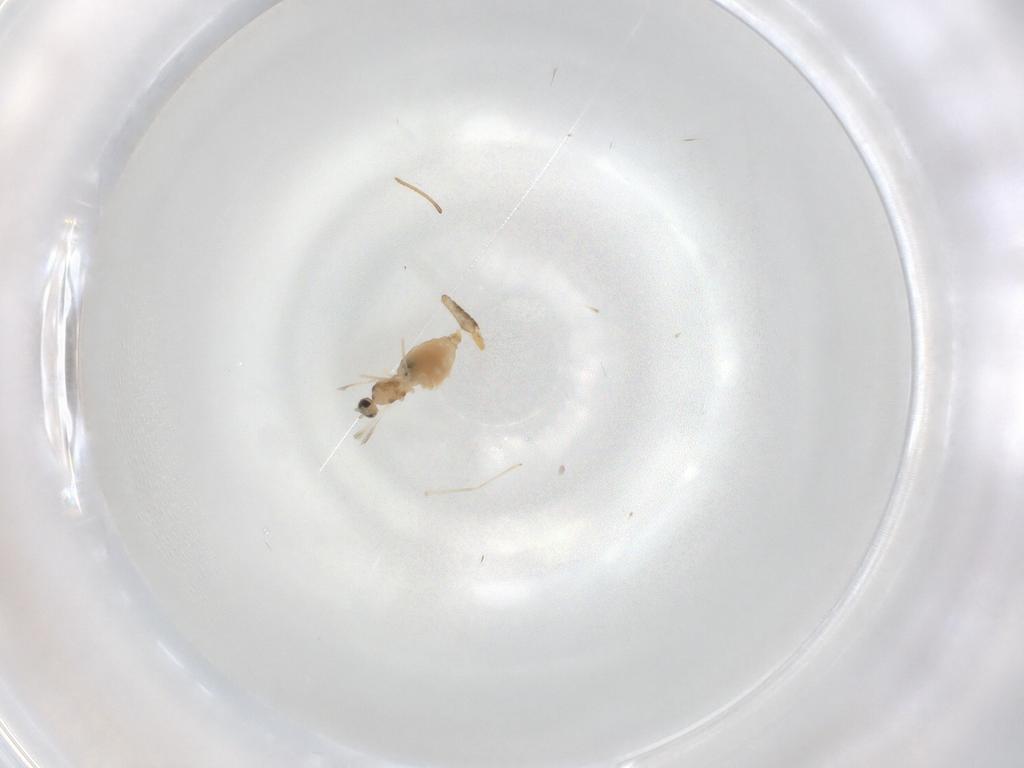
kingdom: Animalia
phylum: Arthropoda
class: Insecta
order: Diptera
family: Cecidomyiidae
